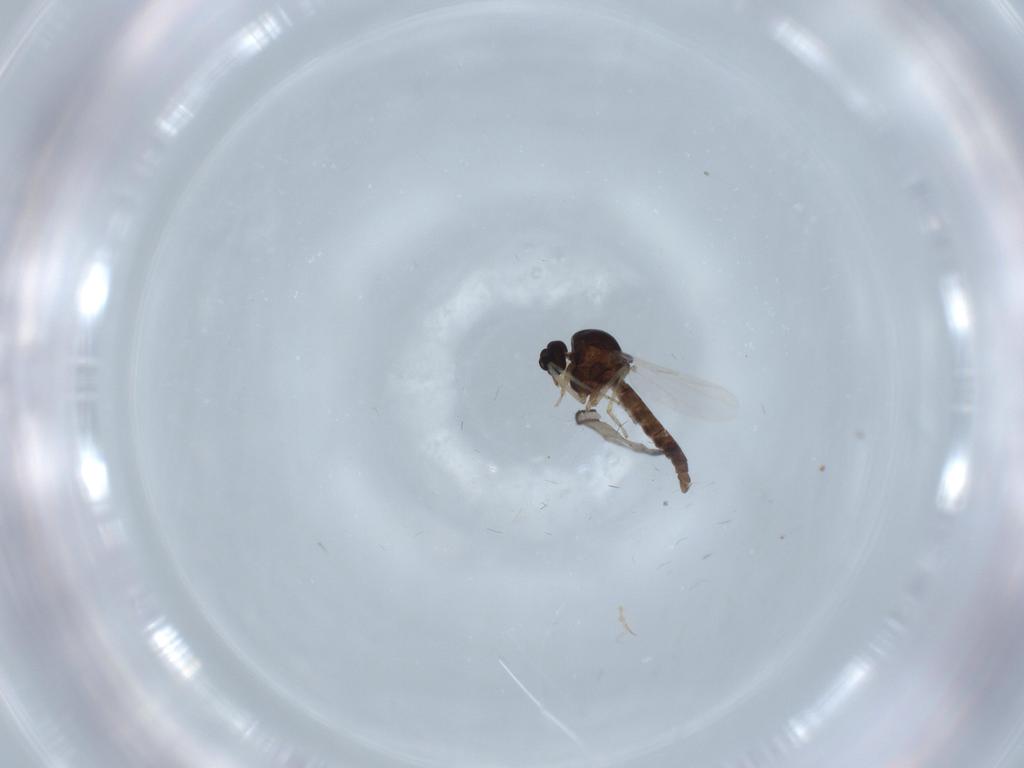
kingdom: Animalia
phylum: Arthropoda
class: Insecta
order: Diptera
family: Ceratopogonidae
